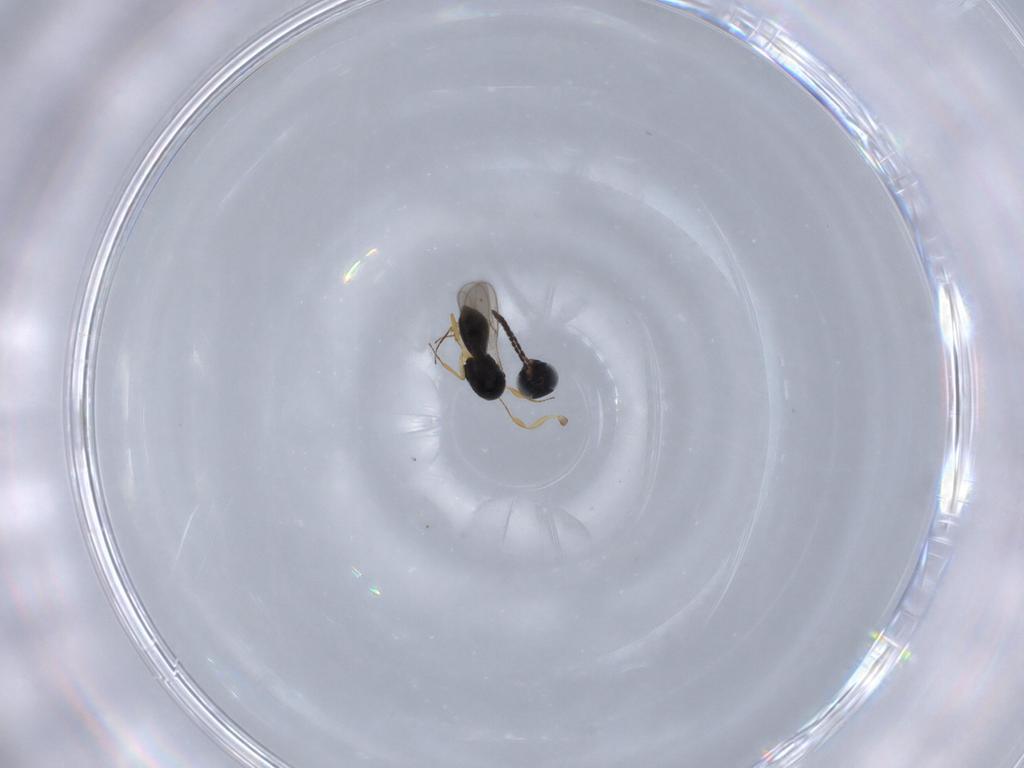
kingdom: Animalia
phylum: Arthropoda
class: Insecta
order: Hymenoptera
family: Scelionidae
